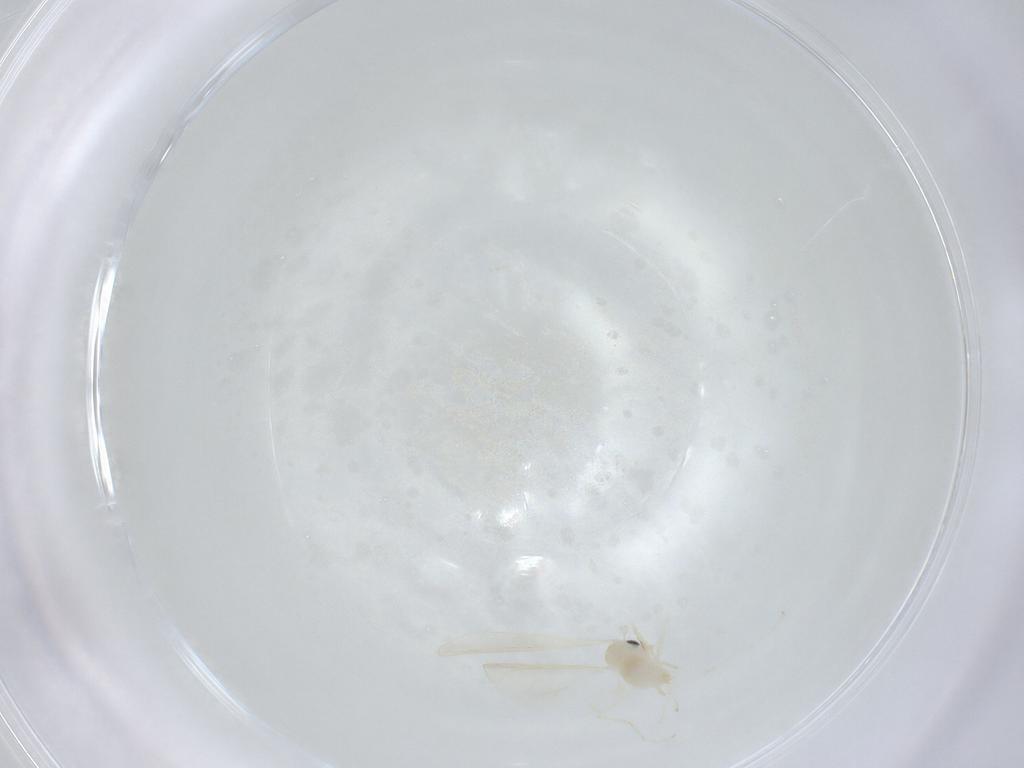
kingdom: Animalia
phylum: Arthropoda
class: Insecta
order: Diptera
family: Cecidomyiidae
